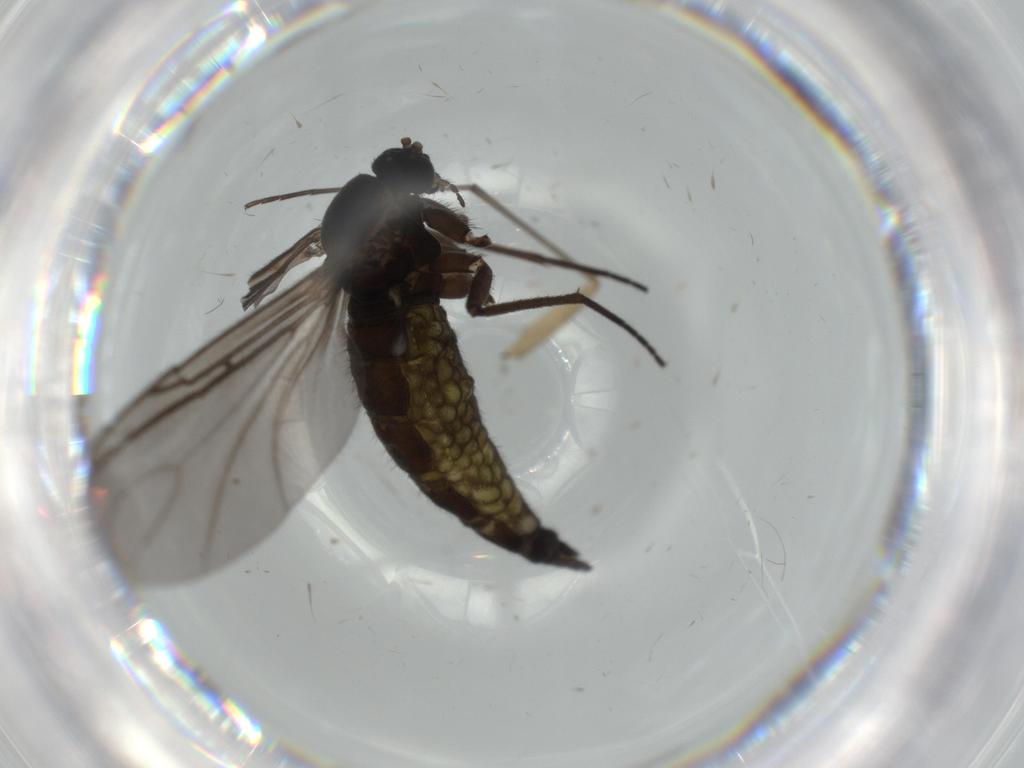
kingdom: Animalia
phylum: Arthropoda
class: Insecta
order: Diptera
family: Sciaridae
